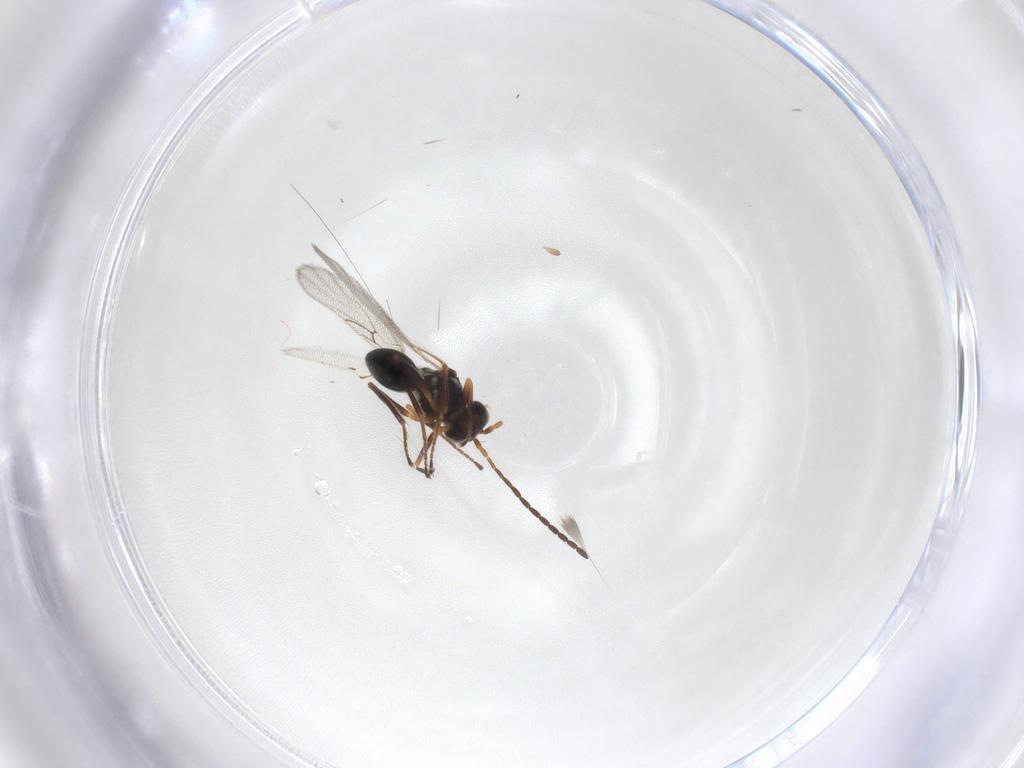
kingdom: Animalia
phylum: Arthropoda
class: Insecta
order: Hymenoptera
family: Figitidae
